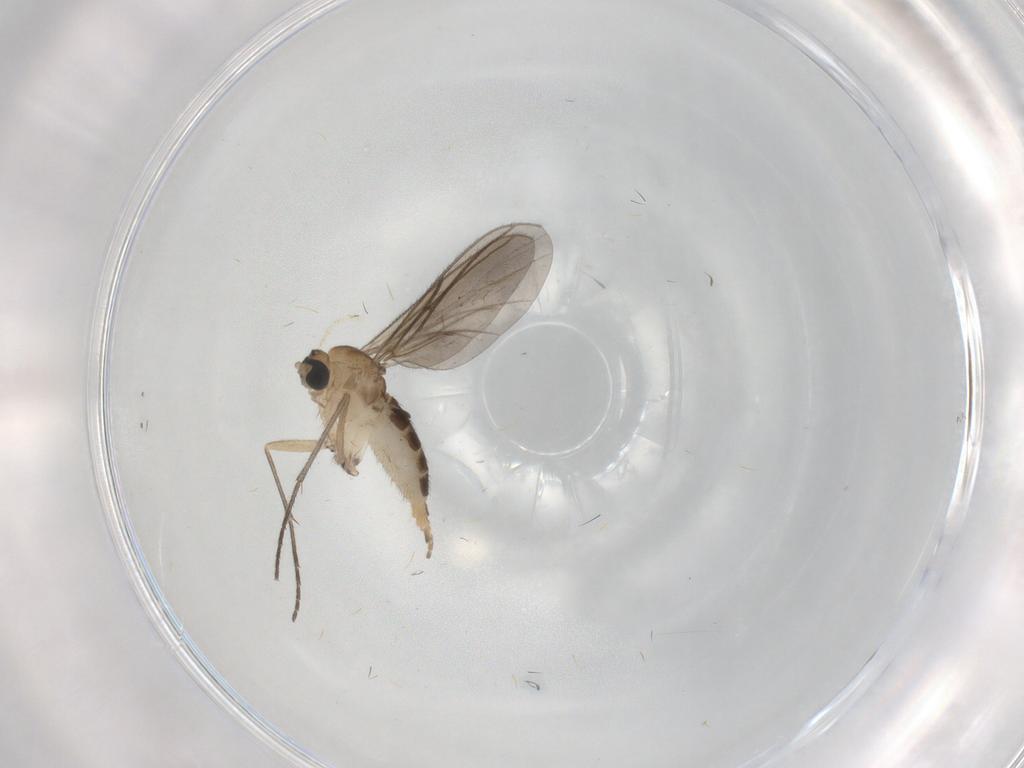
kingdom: Animalia
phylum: Arthropoda
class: Insecta
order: Diptera
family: Sciaridae
